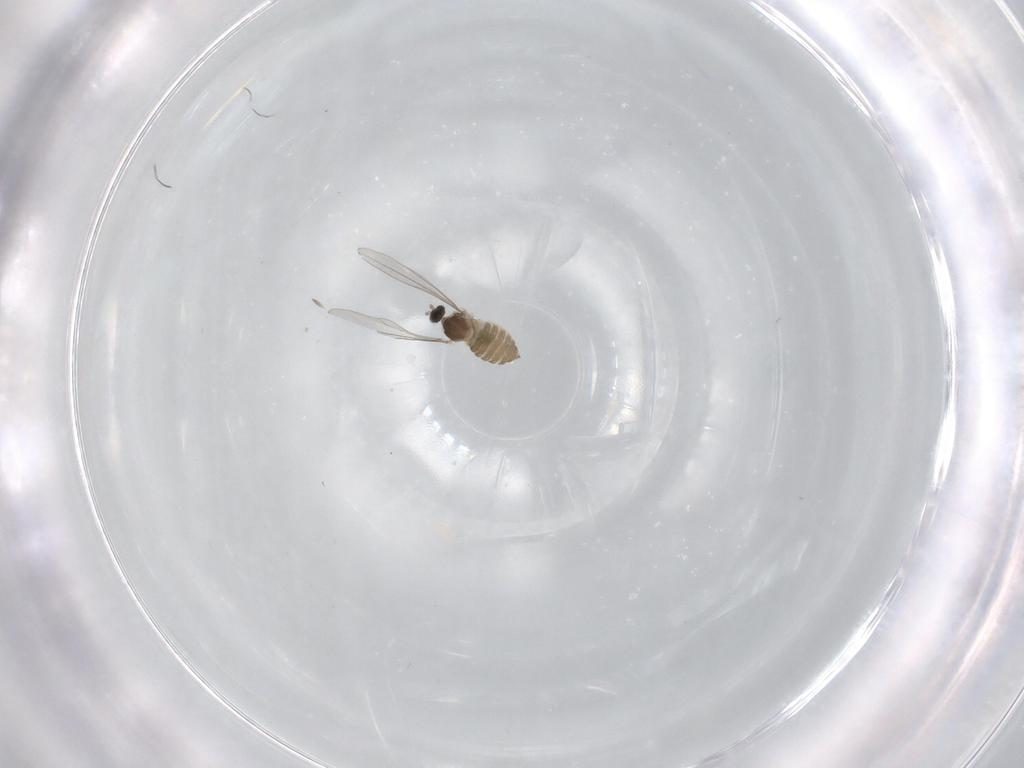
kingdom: Animalia
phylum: Arthropoda
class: Insecta
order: Diptera
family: Cecidomyiidae
